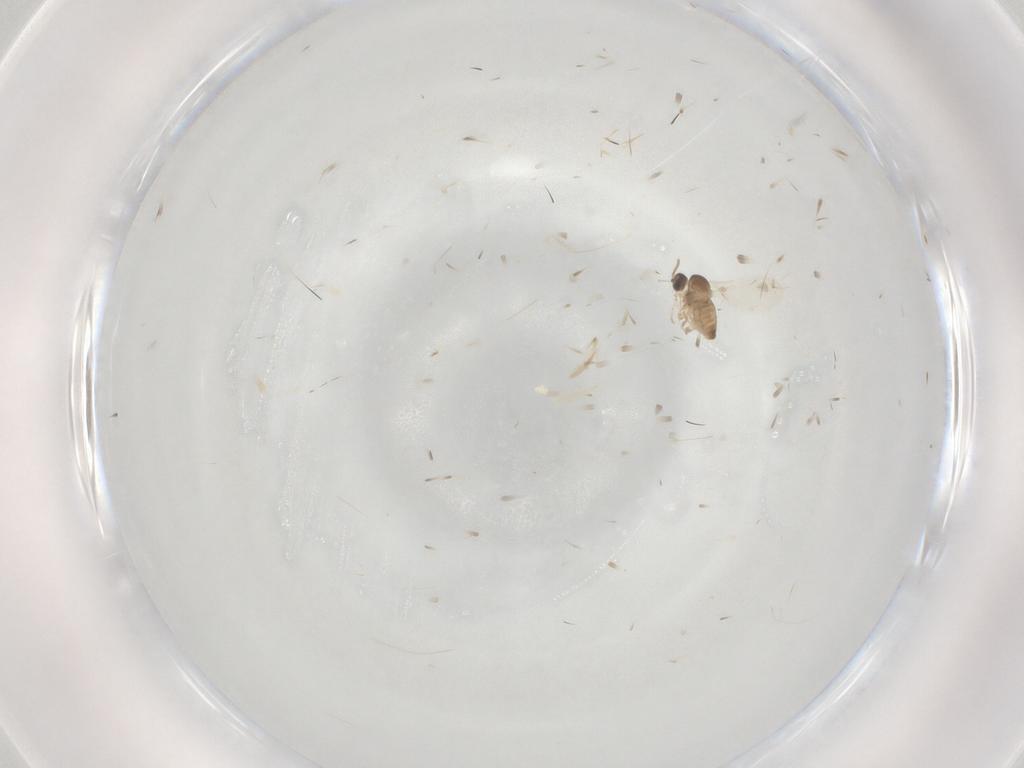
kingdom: Animalia
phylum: Arthropoda
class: Insecta
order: Diptera
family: Cecidomyiidae
